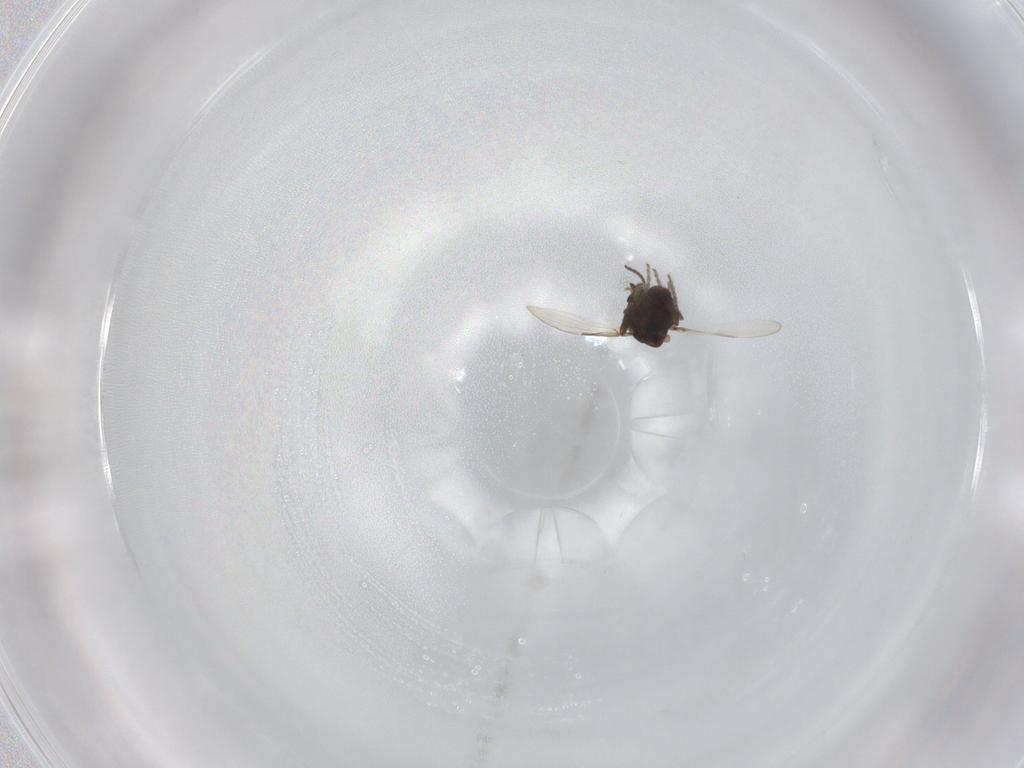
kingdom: Animalia
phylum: Arthropoda
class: Insecta
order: Diptera
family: Ceratopogonidae
